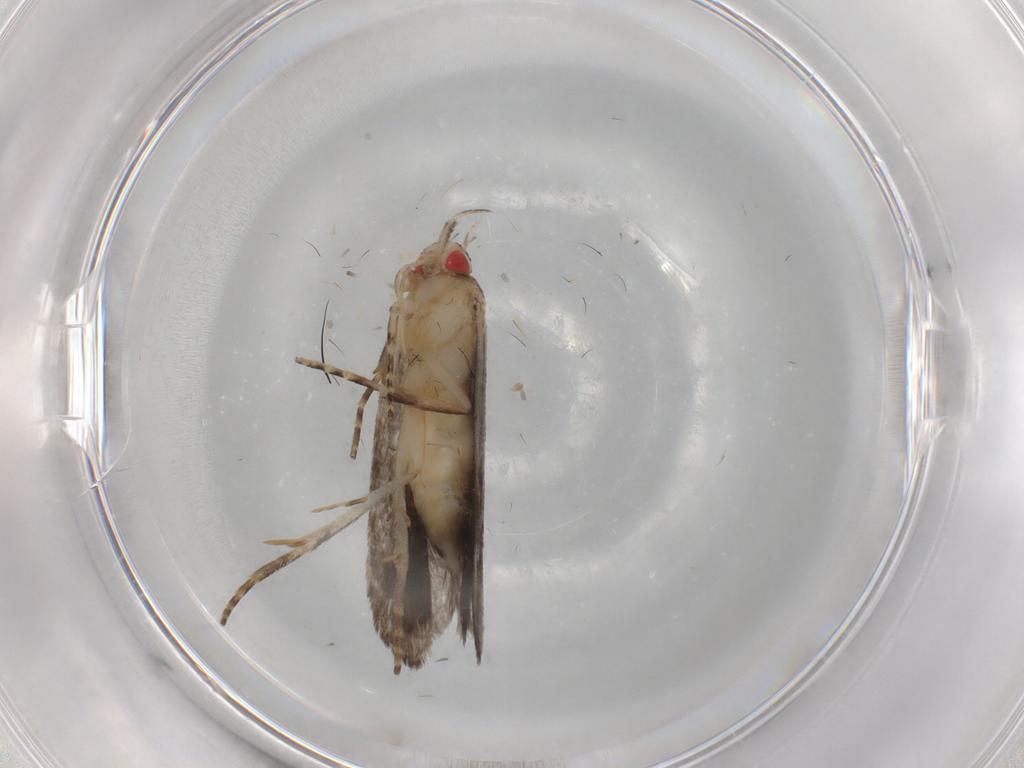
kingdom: Animalia
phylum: Arthropoda
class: Insecta
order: Lepidoptera
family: Gelechiidae
